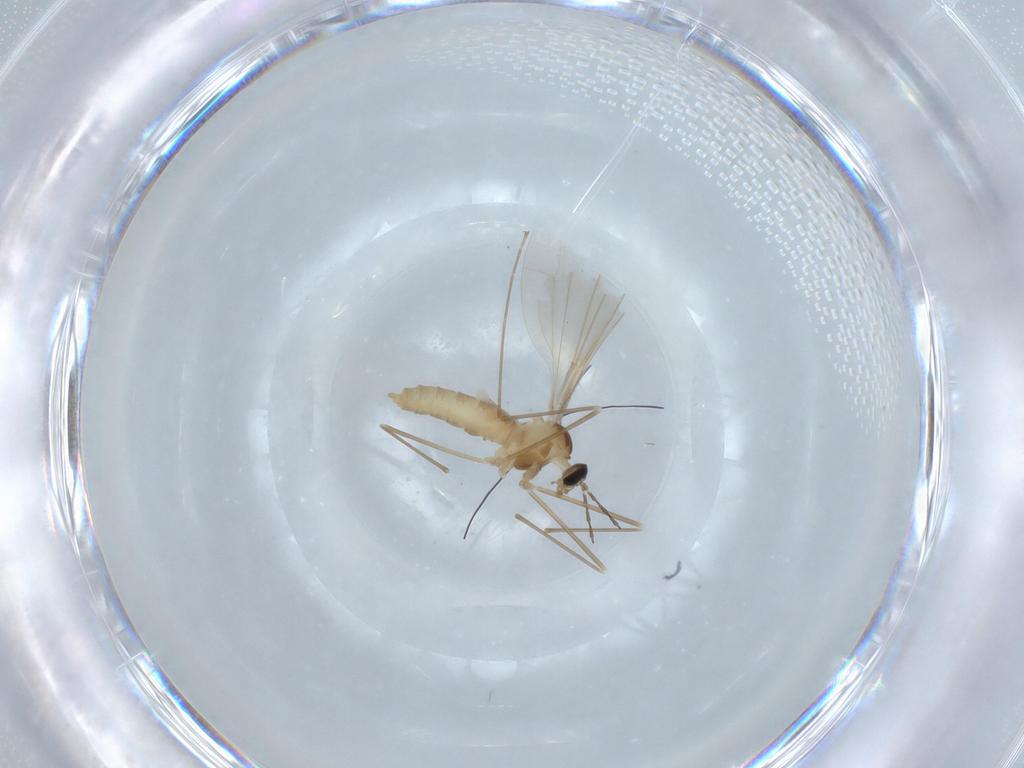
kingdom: Animalia
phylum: Arthropoda
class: Insecta
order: Diptera
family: Cecidomyiidae
